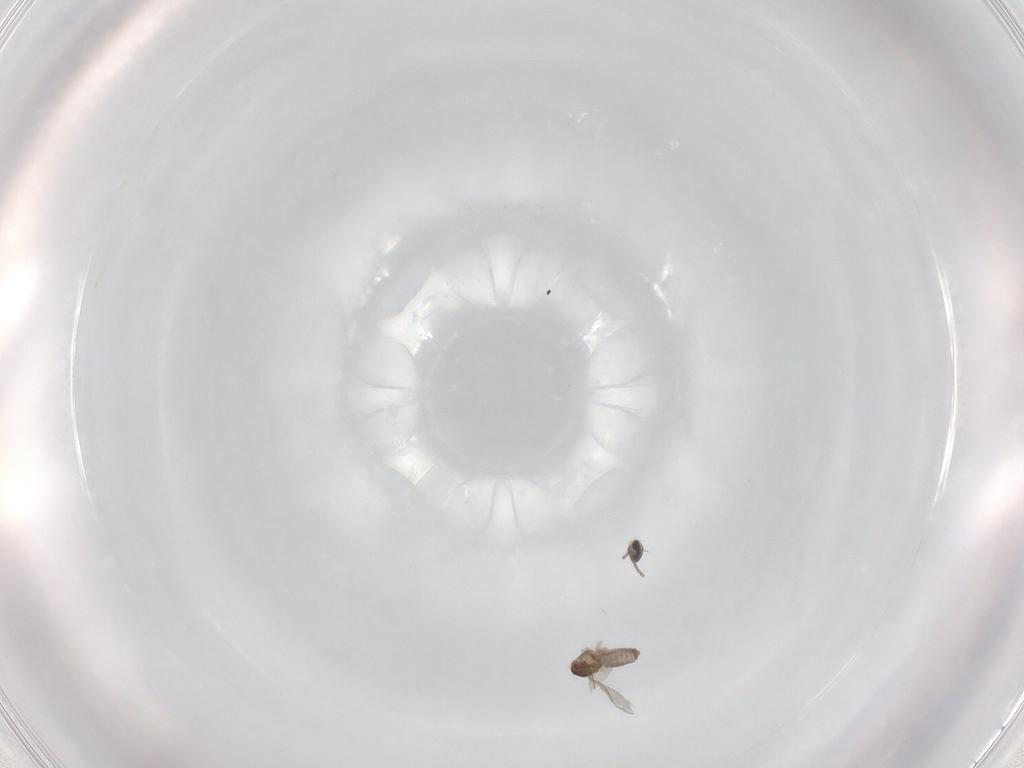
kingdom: Animalia
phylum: Arthropoda
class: Insecta
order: Diptera
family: Cecidomyiidae
